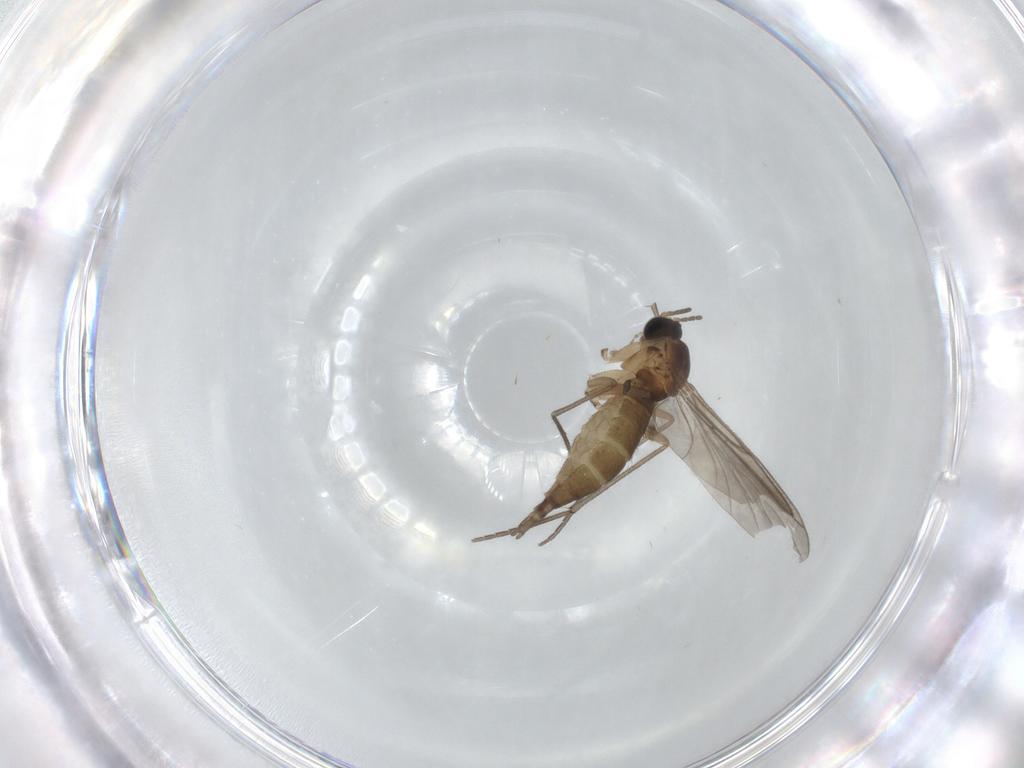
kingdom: Animalia
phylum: Arthropoda
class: Insecta
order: Diptera
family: Sciaridae
